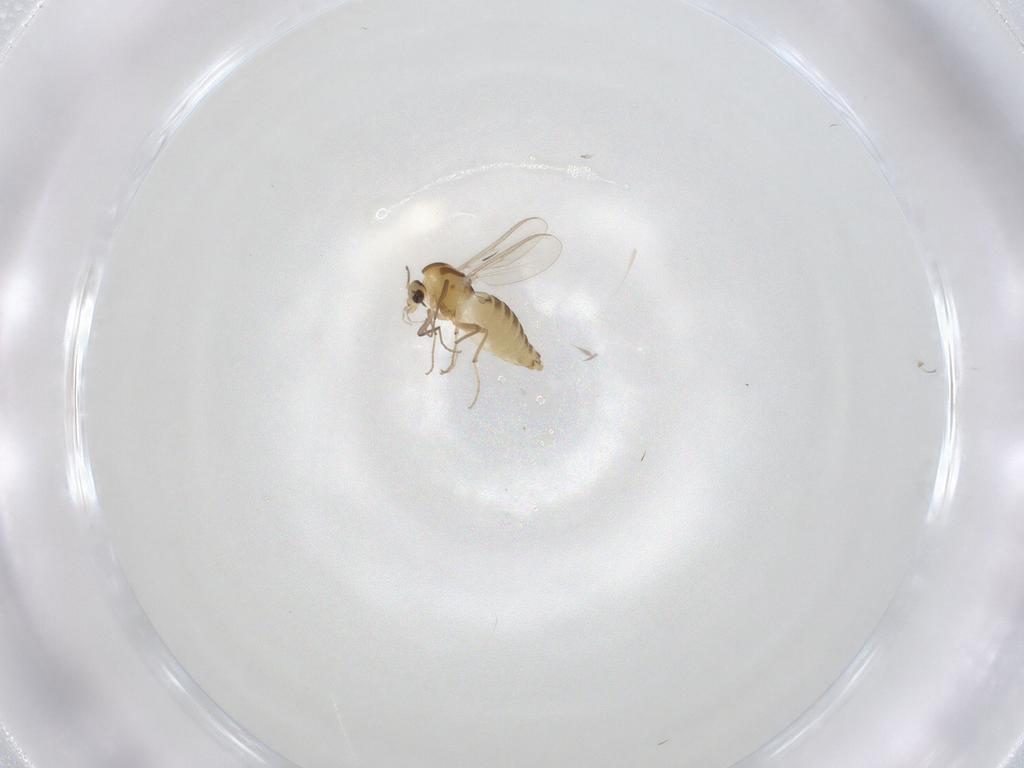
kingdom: Animalia
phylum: Arthropoda
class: Insecta
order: Diptera
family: Chironomidae
